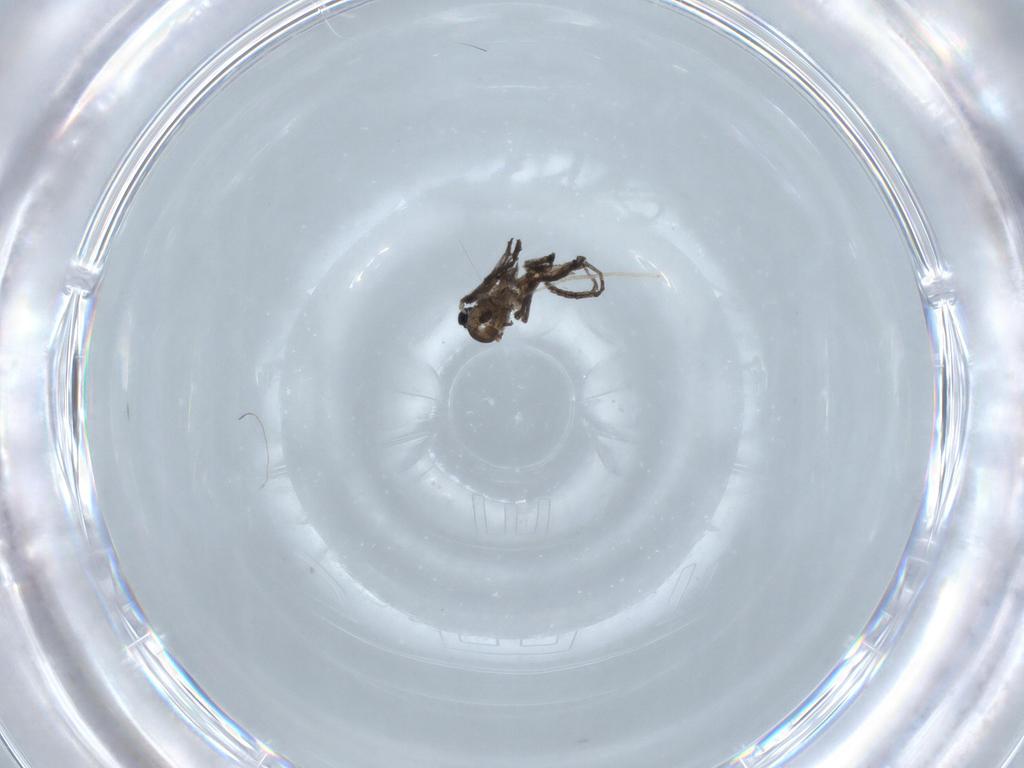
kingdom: Animalia
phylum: Arthropoda
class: Insecta
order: Diptera
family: Sciaridae
